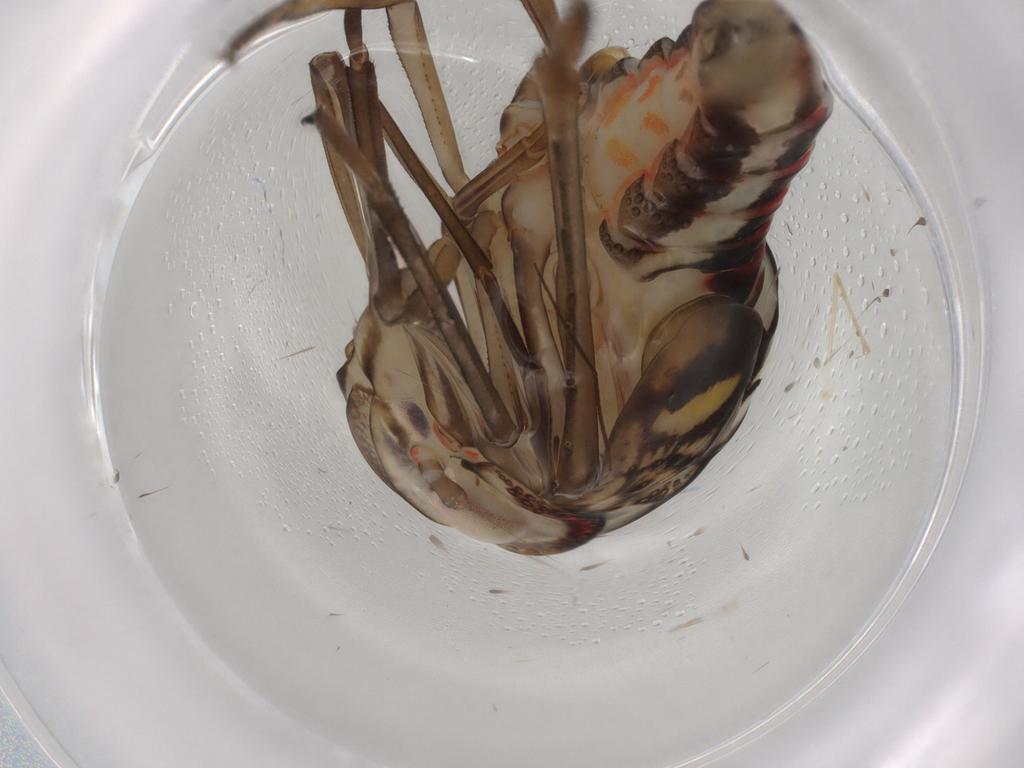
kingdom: Animalia
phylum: Arthropoda
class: Insecta
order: Hemiptera
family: Nogodinidae
